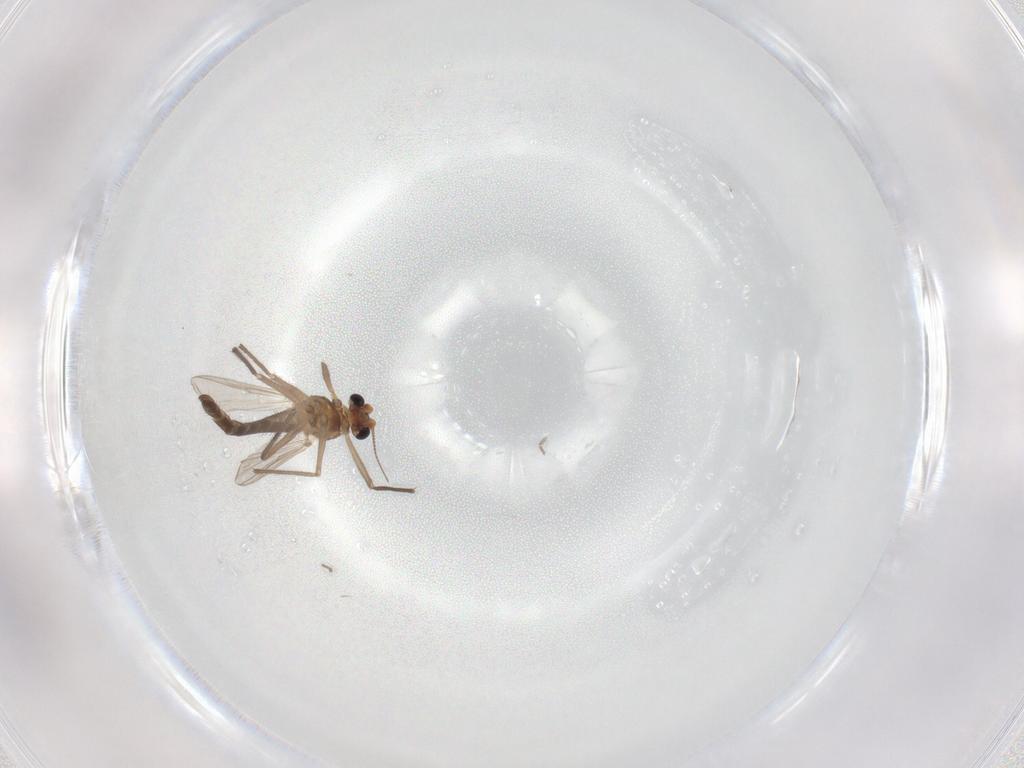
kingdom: Animalia
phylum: Arthropoda
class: Insecta
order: Diptera
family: Chironomidae
